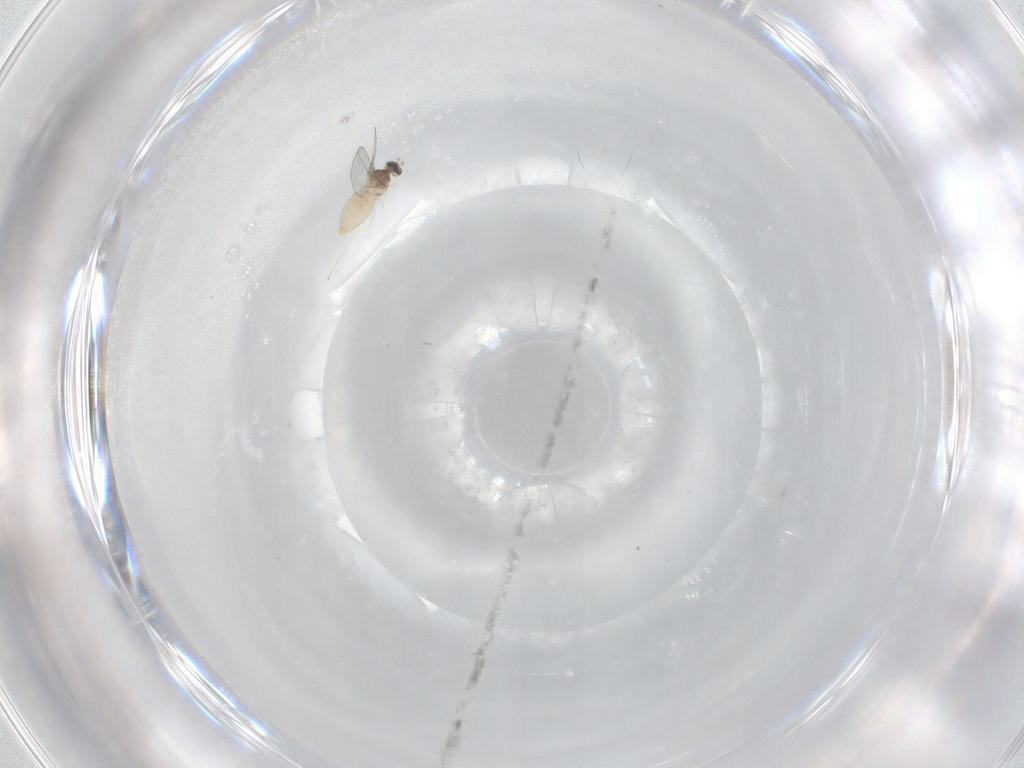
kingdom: Animalia
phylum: Arthropoda
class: Insecta
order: Diptera
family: Cecidomyiidae
